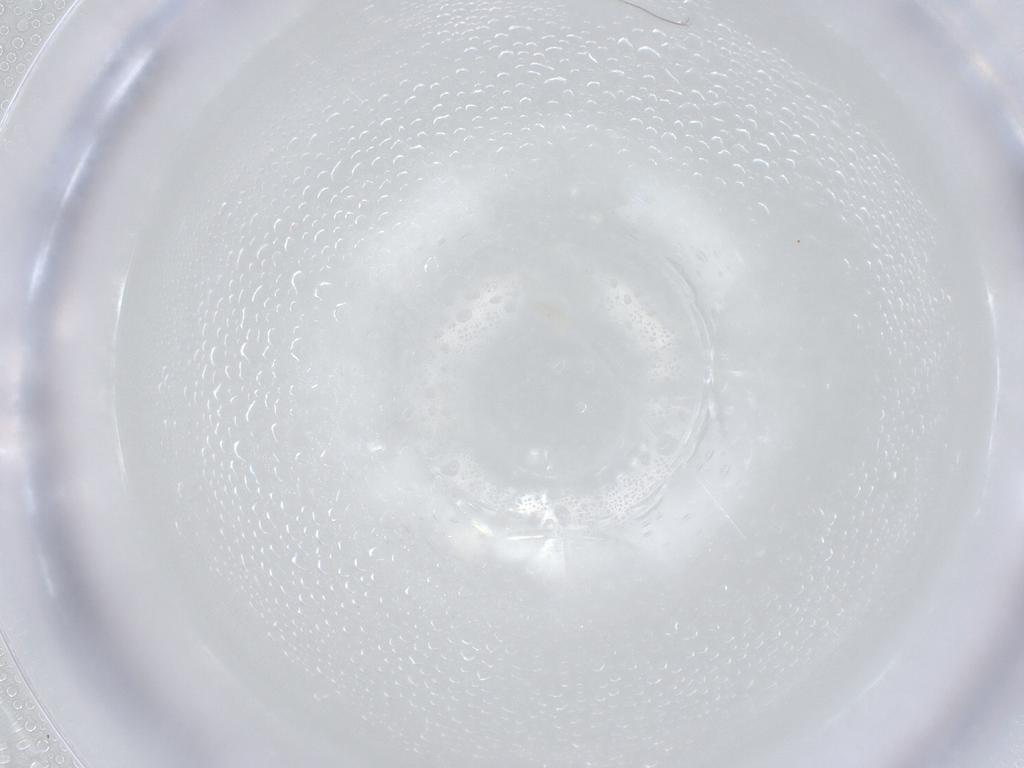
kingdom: Animalia
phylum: Arthropoda
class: Arachnida
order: Trombidiformes
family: Eupodidae
